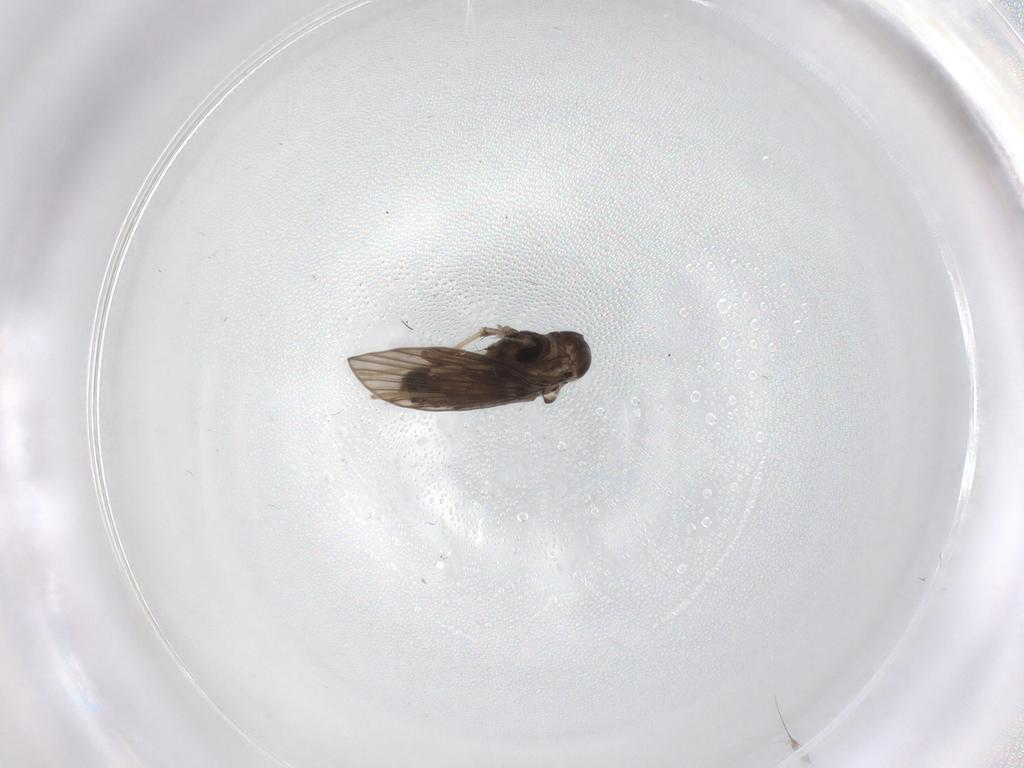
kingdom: Animalia
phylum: Arthropoda
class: Insecta
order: Diptera
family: Limoniidae
